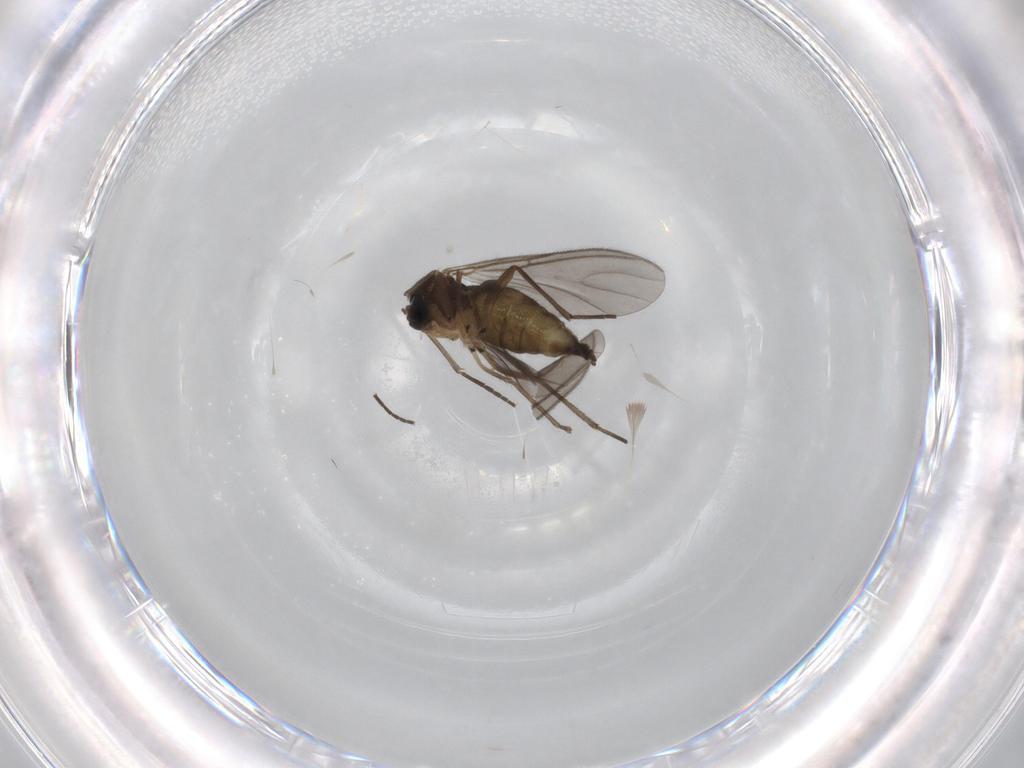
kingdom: Animalia
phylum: Arthropoda
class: Insecta
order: Diptera
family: Sciaridae
